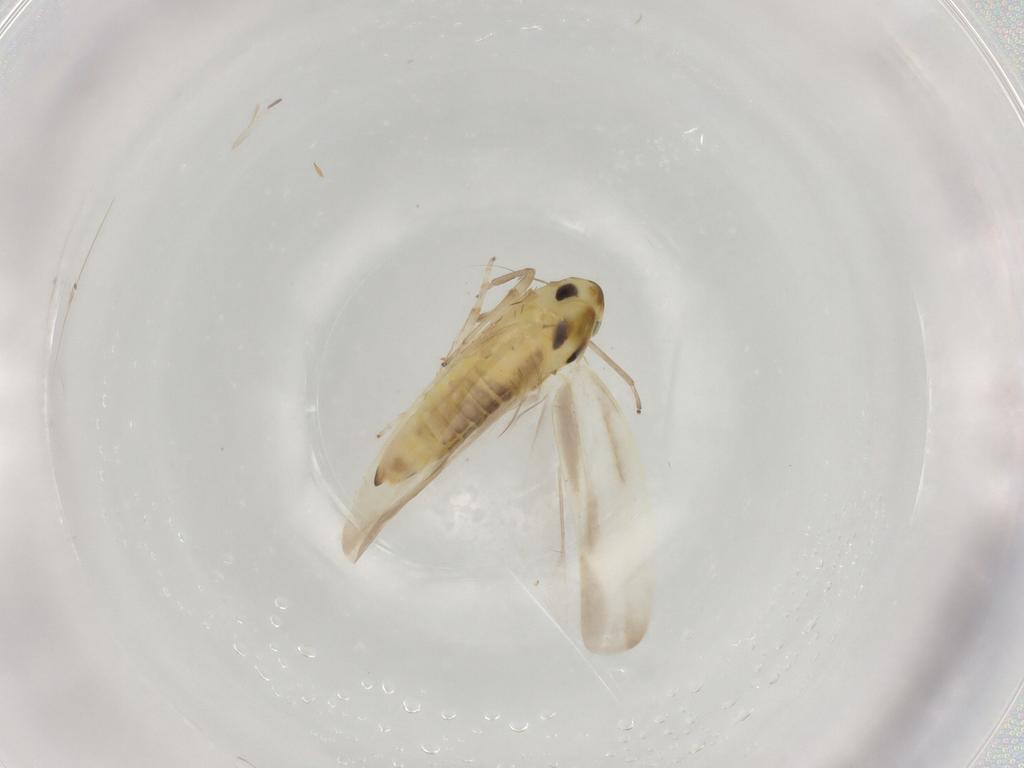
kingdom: Animalia
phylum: Arthropoda
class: Insecta
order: Hemiptera
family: Cicadellidae
